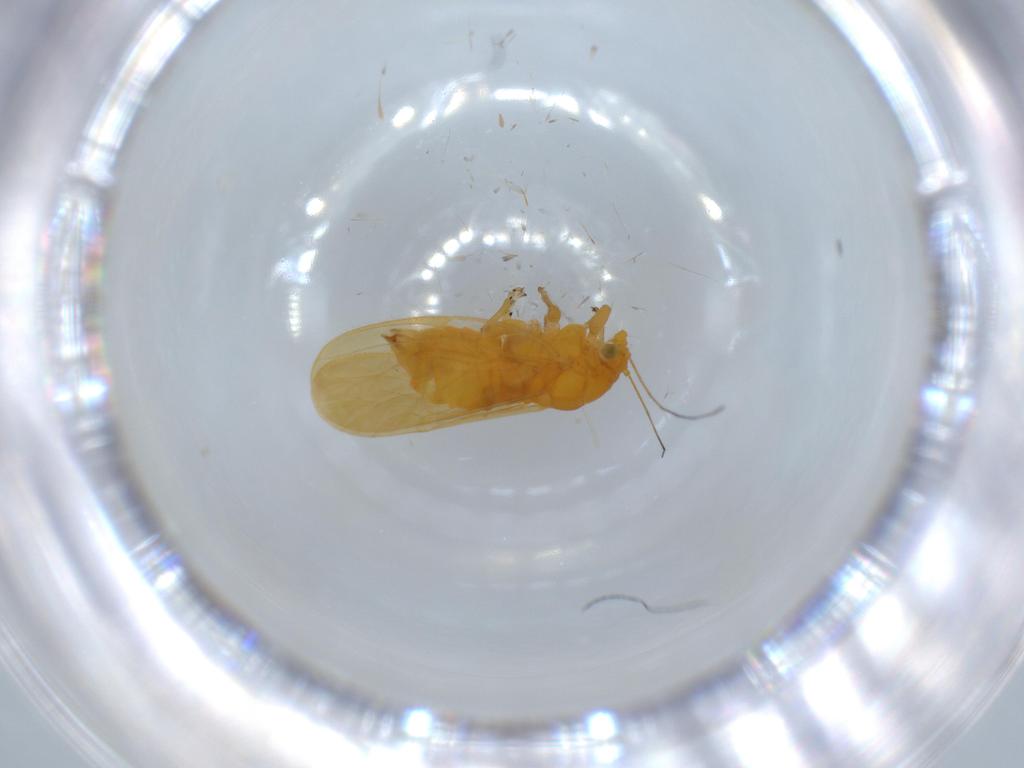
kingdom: Animalia
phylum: Arthropoda
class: Insecta
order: Hemiptera
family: Psyllidae
